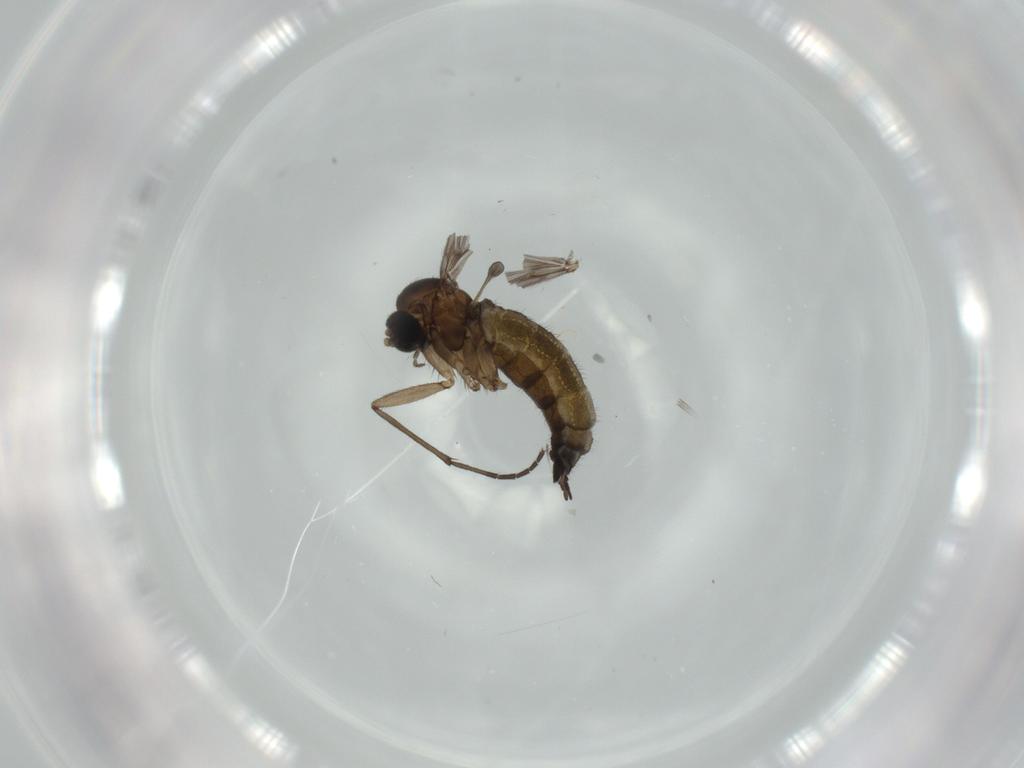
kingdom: Animalia
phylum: Arthropoda
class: Insecta
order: Diptera
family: Sciaridae
